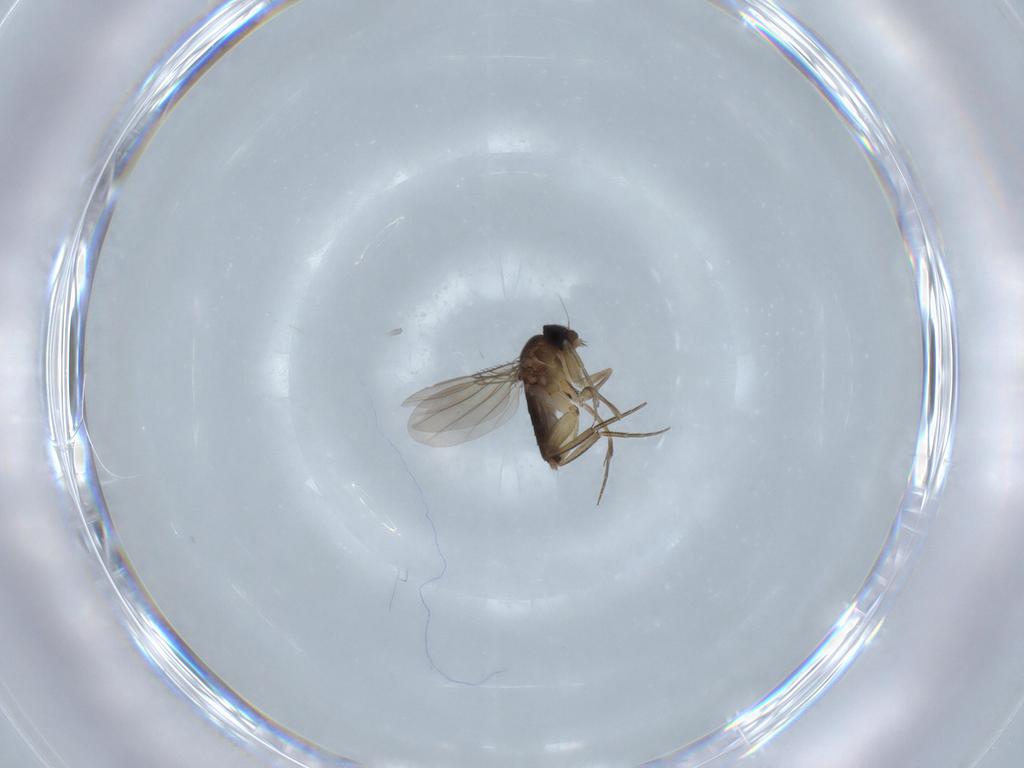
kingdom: Animalia
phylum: Arthropoda
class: Insecta
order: Diptera
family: Phoridae
